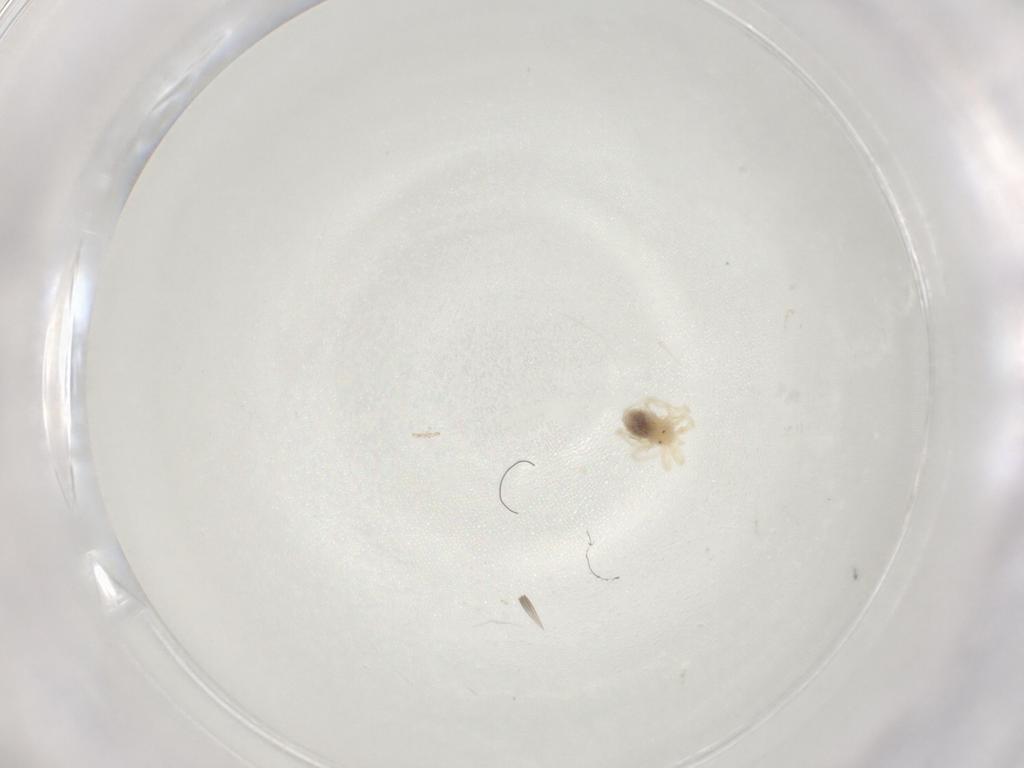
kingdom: Animalia
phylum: Arthropoda
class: Arachnida
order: Trombidiformes
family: Anystidae
